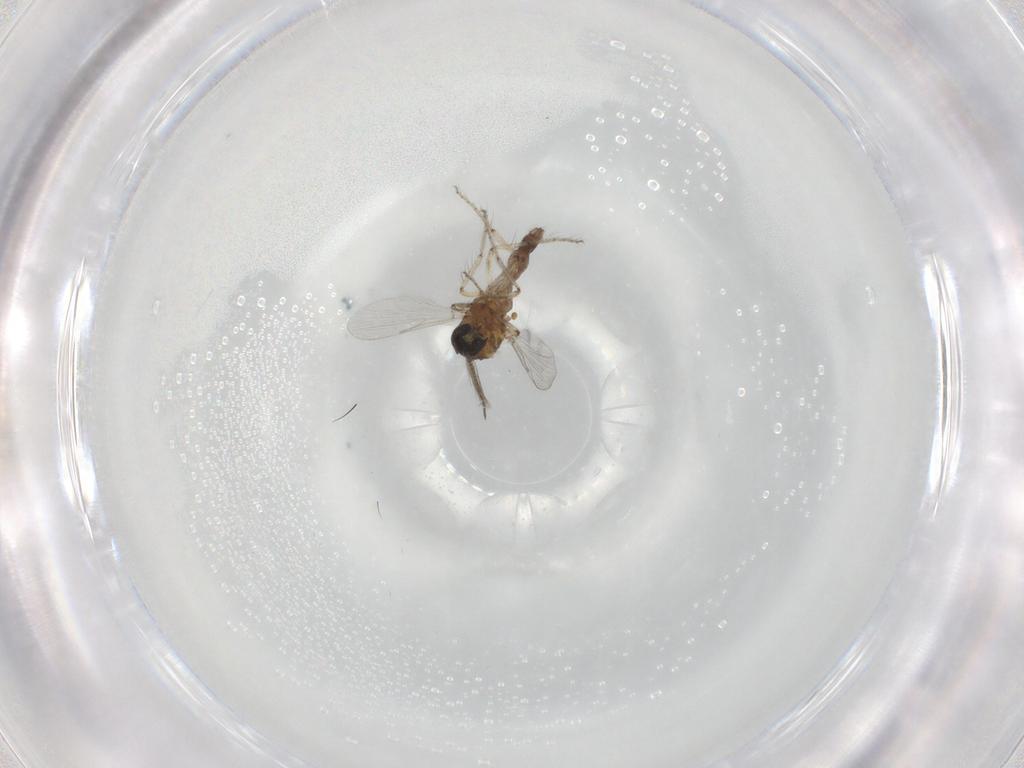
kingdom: Animalia
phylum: Arthropoda
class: Insecta
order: Diptera
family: Ceratopogonidae
